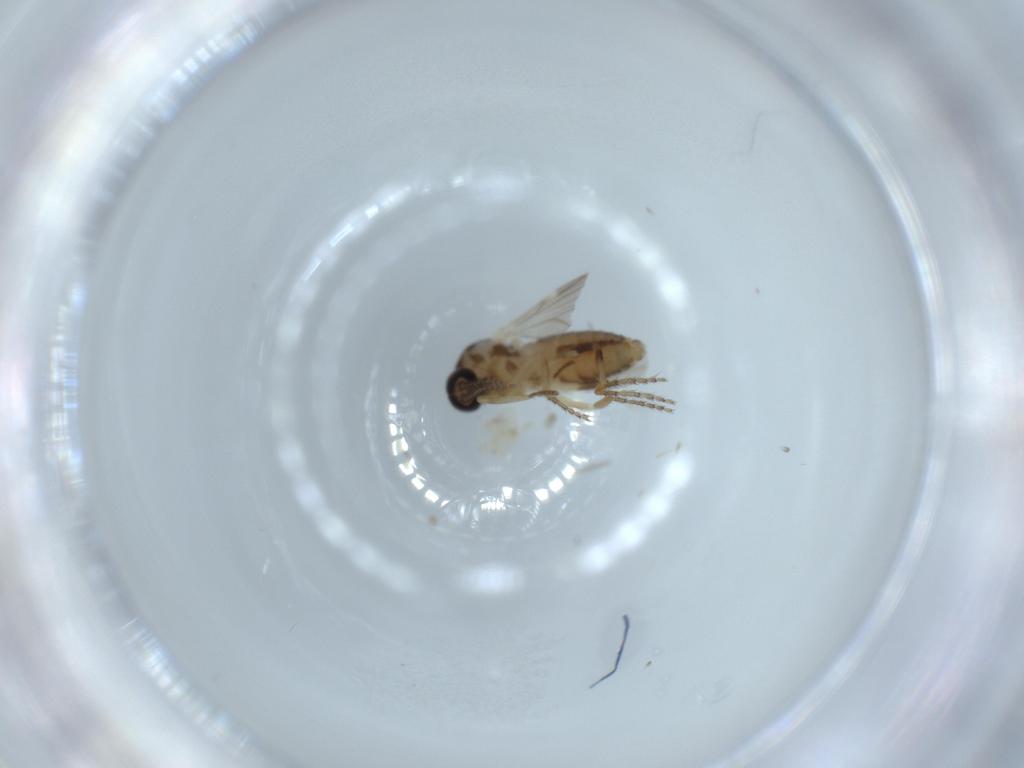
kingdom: Animalia
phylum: Arthropoda
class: Insecta
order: Diptera
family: Ceratopogonidae
